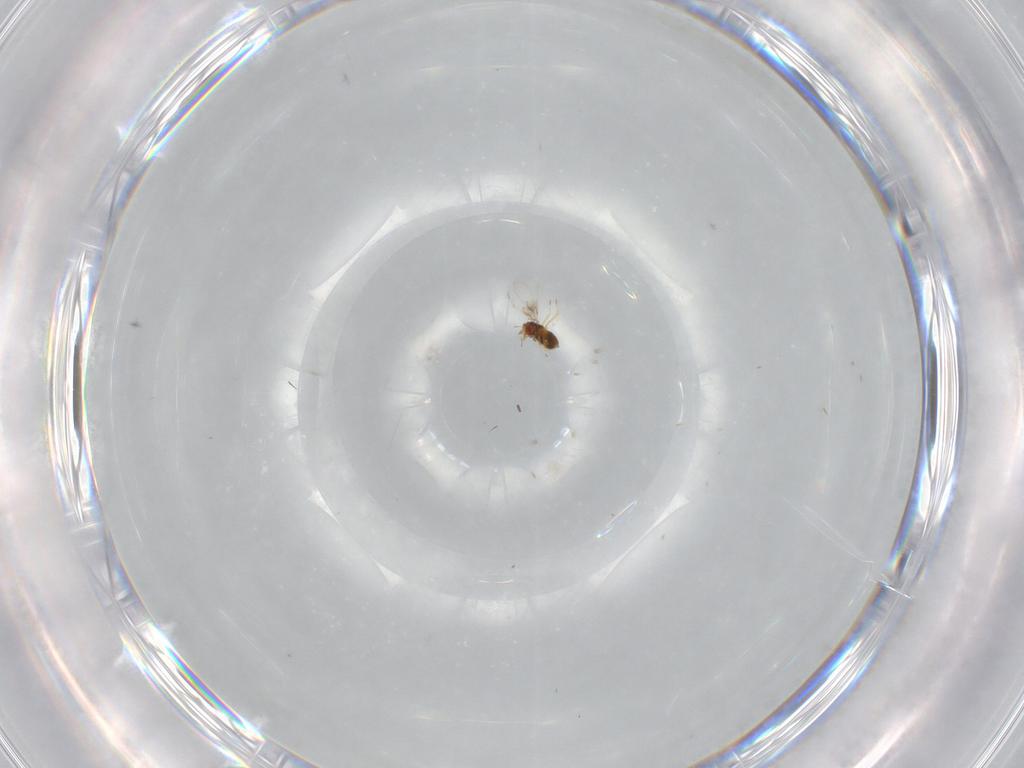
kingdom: Animalia
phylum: Arthropoda
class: Insecta
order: Hymenoptera
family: Trichogrammatidae
